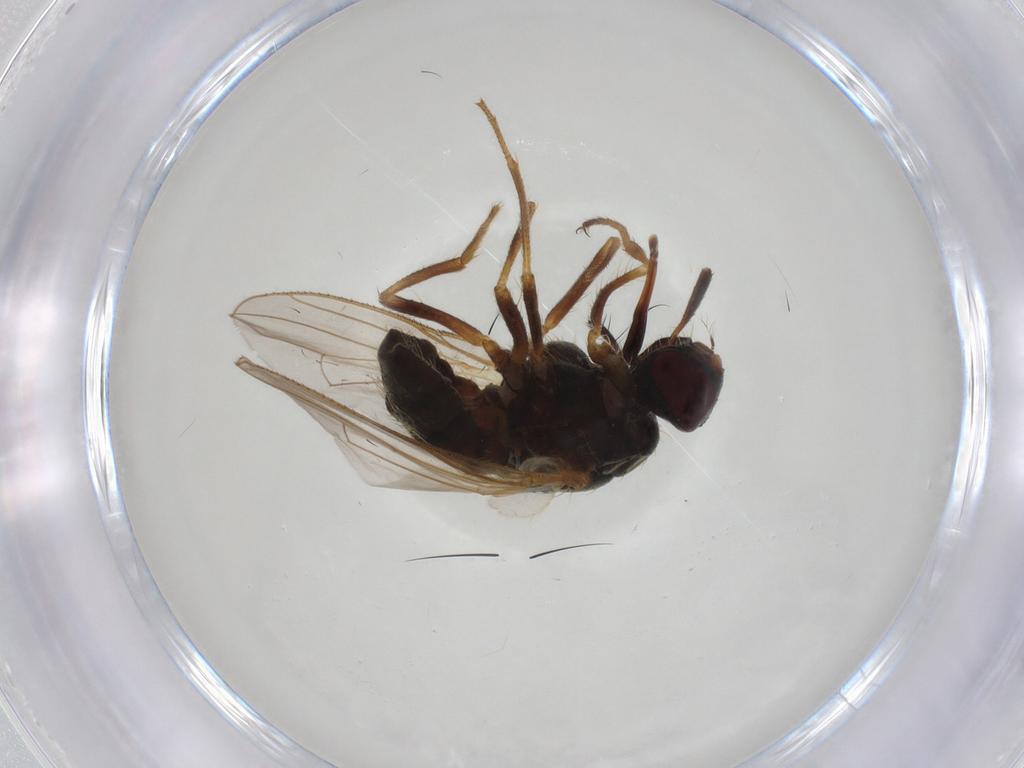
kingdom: Animalia
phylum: Arthropoda
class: Insecta
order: Diptera
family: Muscidae
